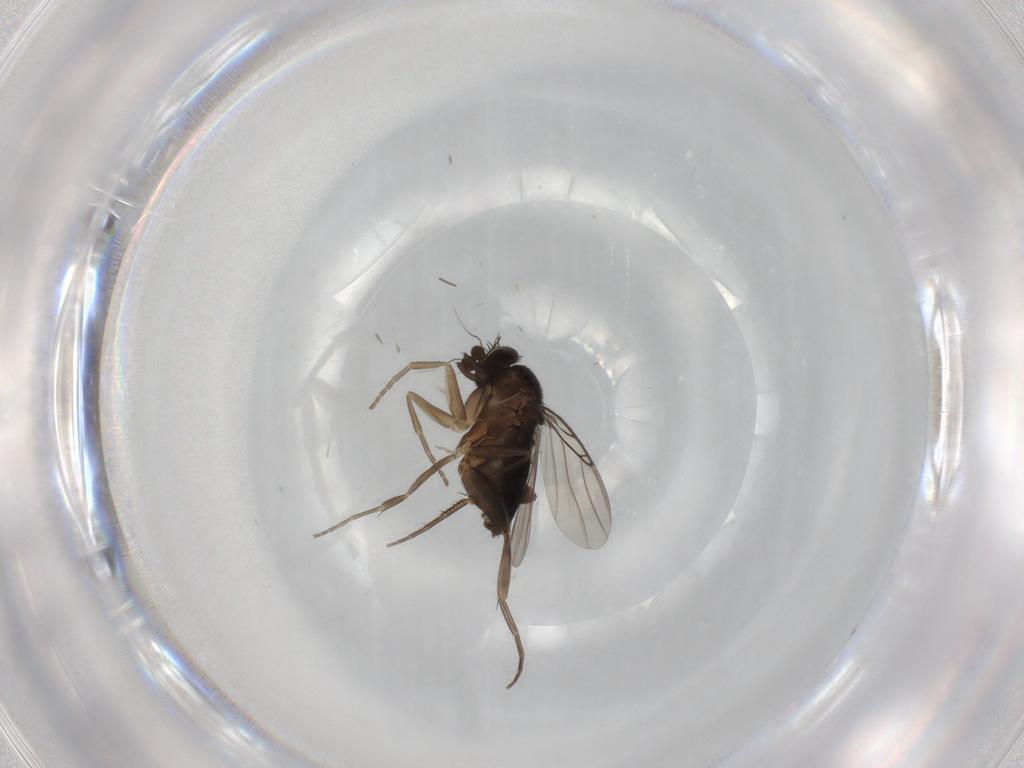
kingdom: Animalia
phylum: Arthropoda
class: Insecta
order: Diptera
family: Phoridae
